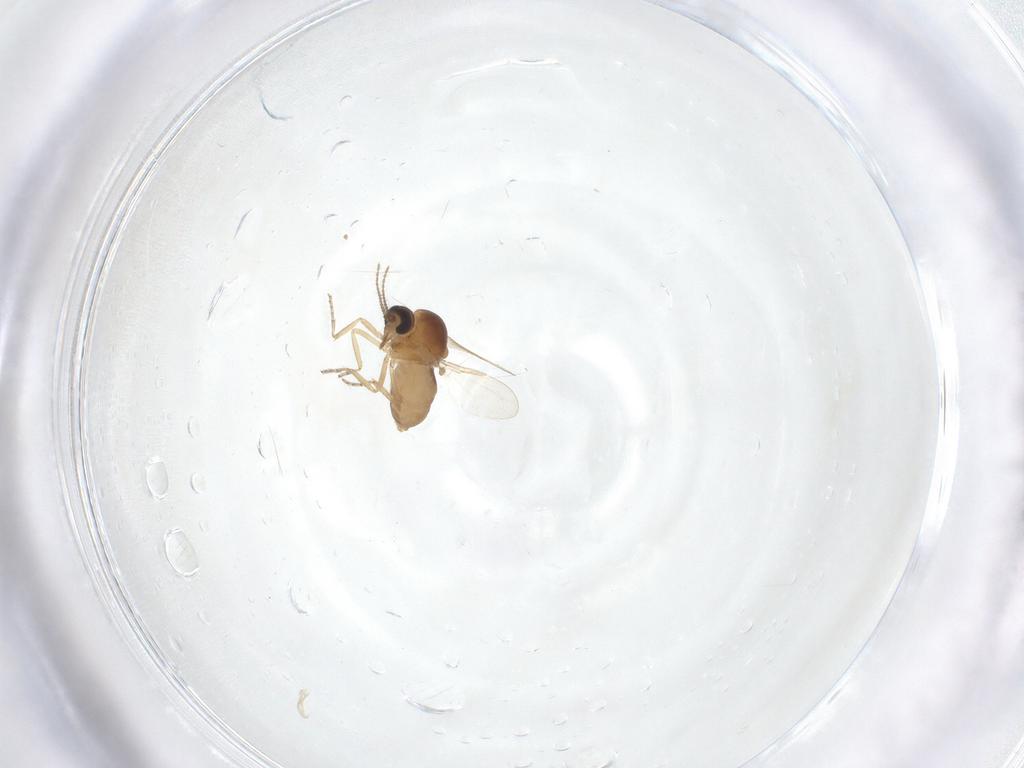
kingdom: Animalia
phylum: Arthropoda
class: Insecta
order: Diptera
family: Ceratopogonidae
